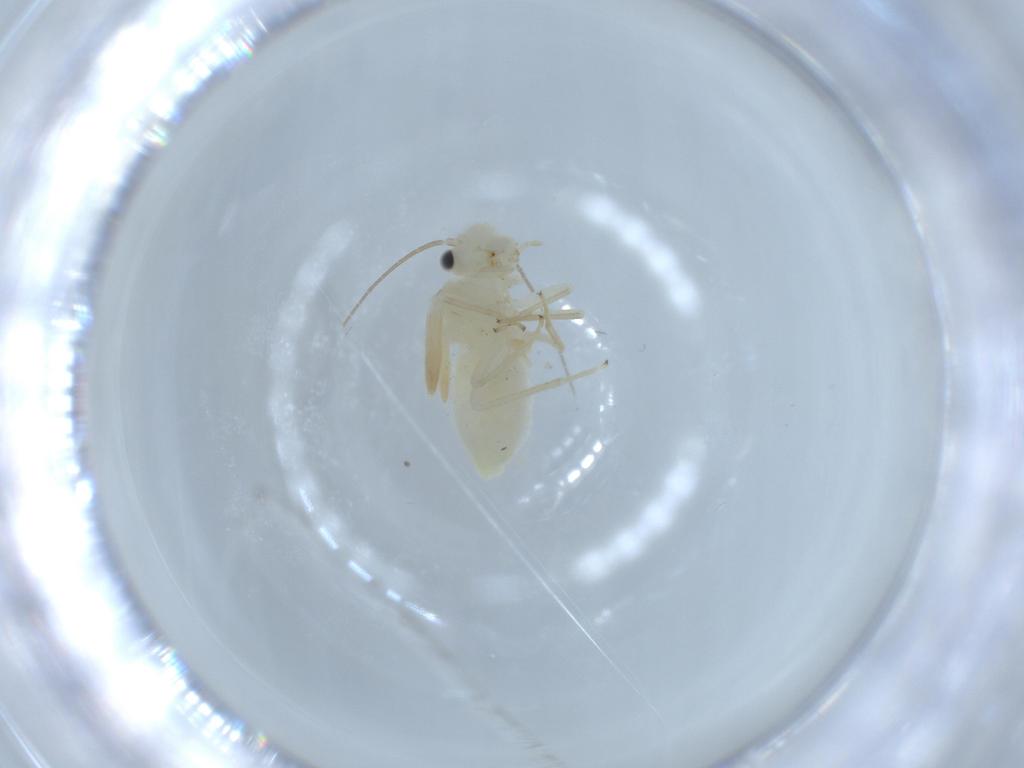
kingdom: Animalia
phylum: Arthropoda
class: Insecta
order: Psocodea
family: Caeciliusidae
